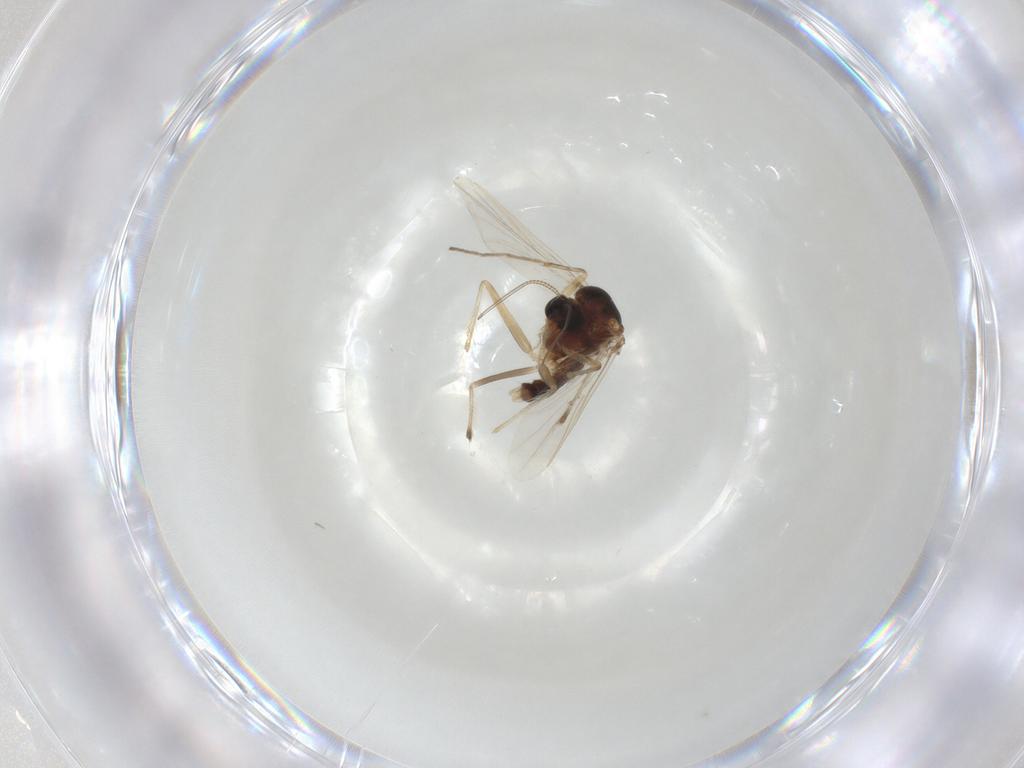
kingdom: Animalia
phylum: Arthropoda
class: Insecta
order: Diptera
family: Chironomidae
